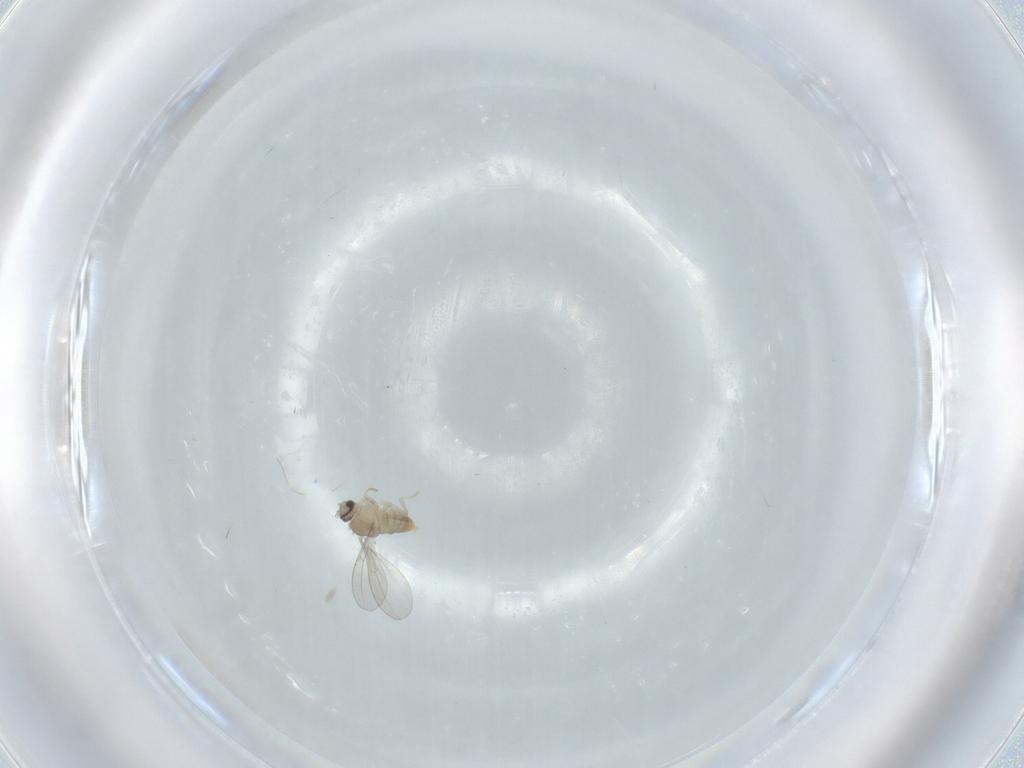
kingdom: Animalia
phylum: Arthropoda
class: Insecta
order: Diptera
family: Cecidomyiidae
